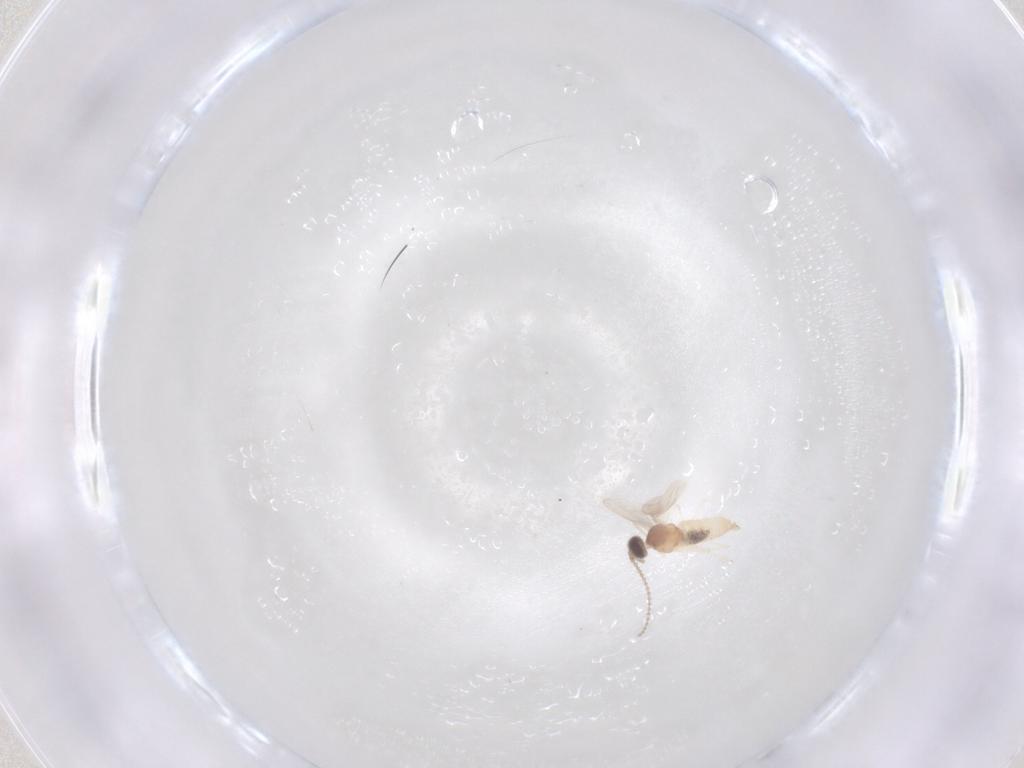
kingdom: Animalia
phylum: Arthropoda
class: Insecta
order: Diptera
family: Cecidomyiidae
